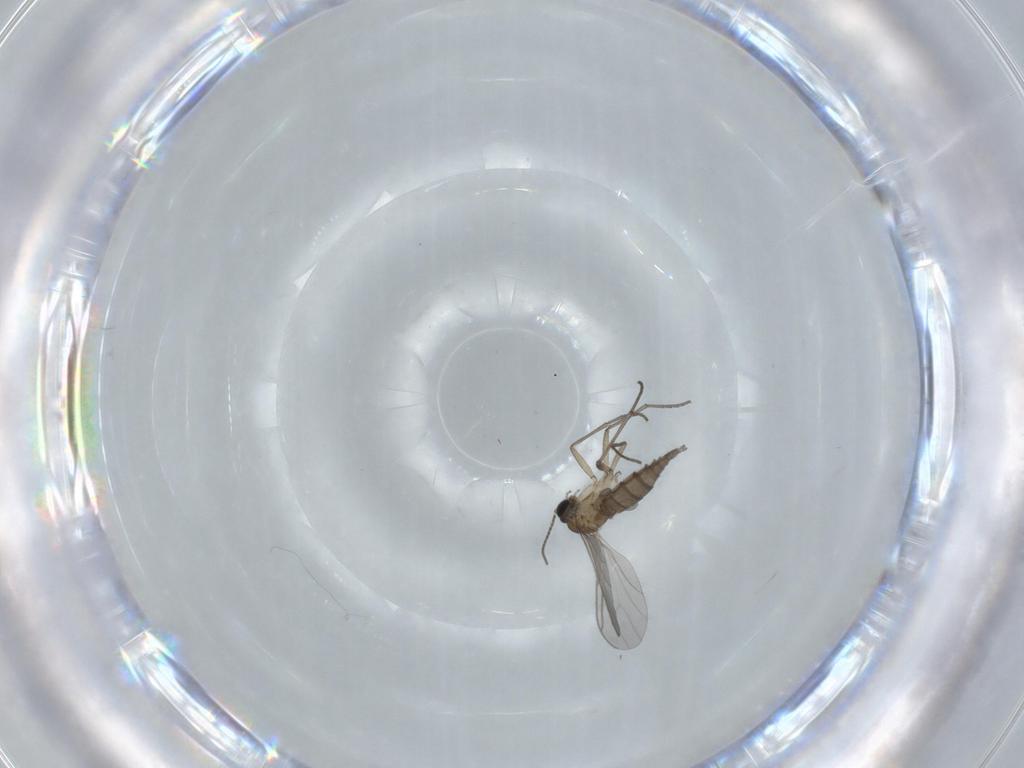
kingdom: Animalia
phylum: Arthropoda
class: Insecta
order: Diptera
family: Sciaridae
